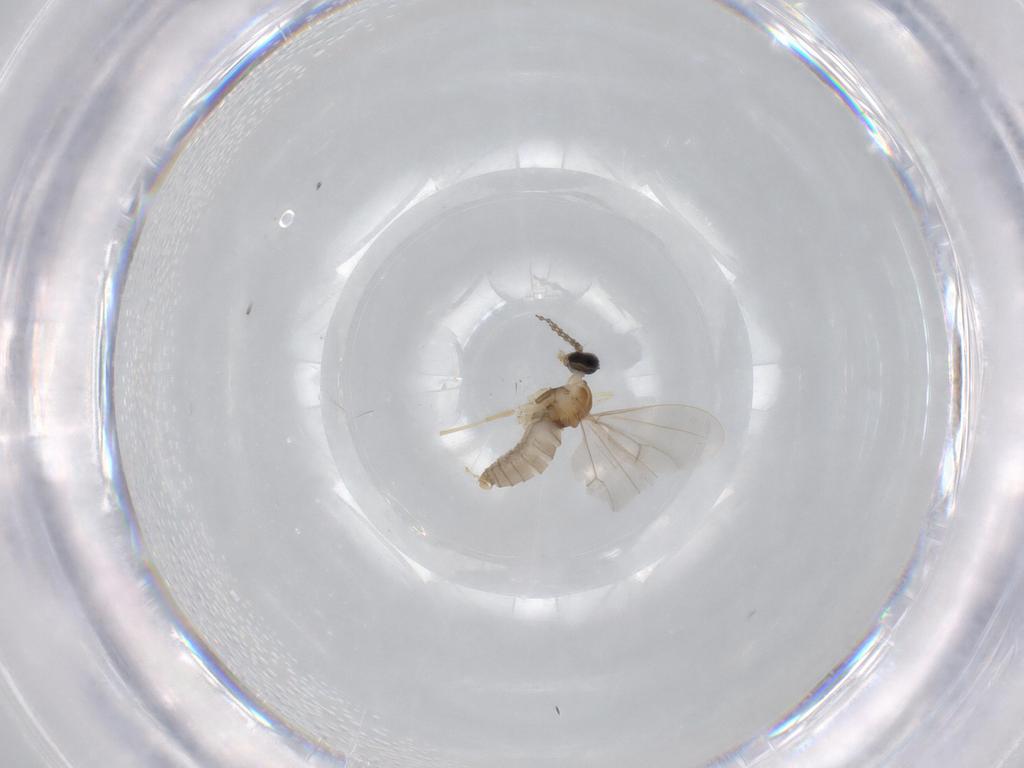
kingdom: Animalia
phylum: Arthropoda
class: Insecta
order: Diptera
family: Cecidomyiidae
